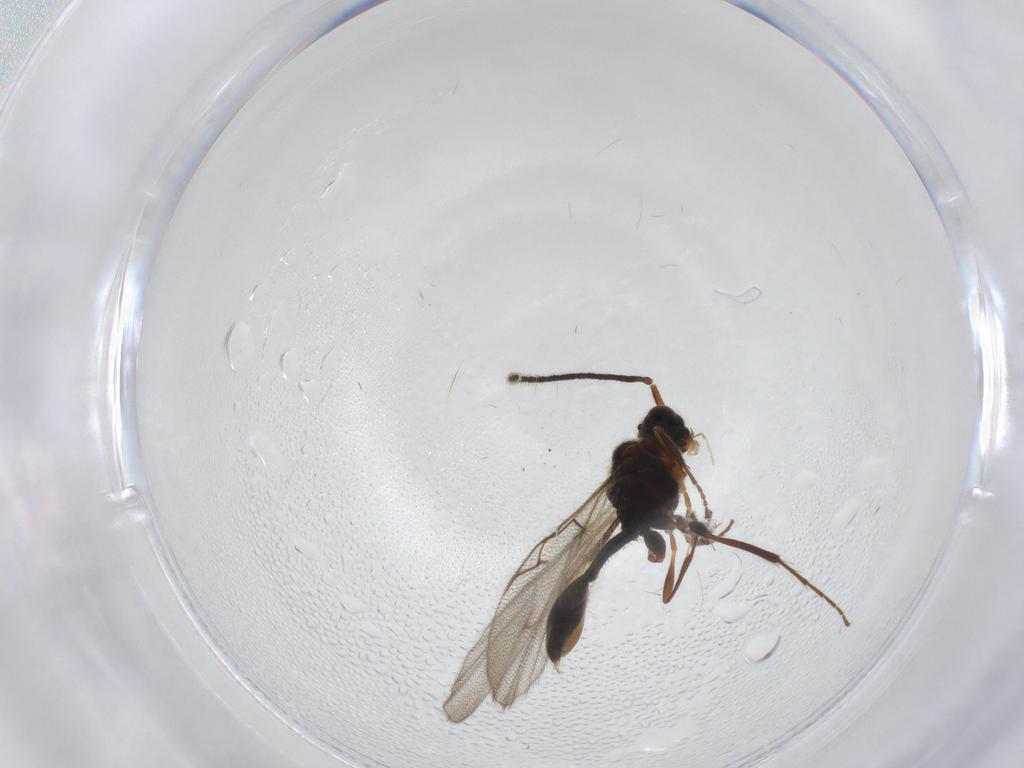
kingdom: Animalia
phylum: Arthropoda
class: Insecta
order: Hymenoptera
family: Diapriidae
